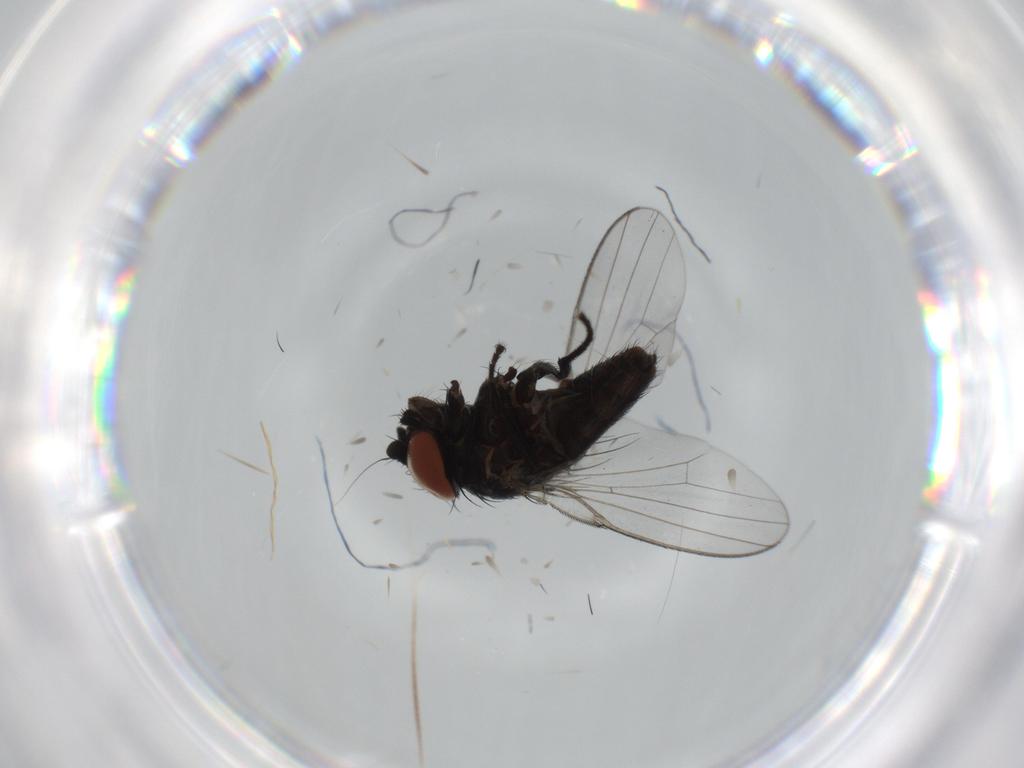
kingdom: Animalia
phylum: Arthropoda
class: Insecta
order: Diptera
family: Milichiidae
